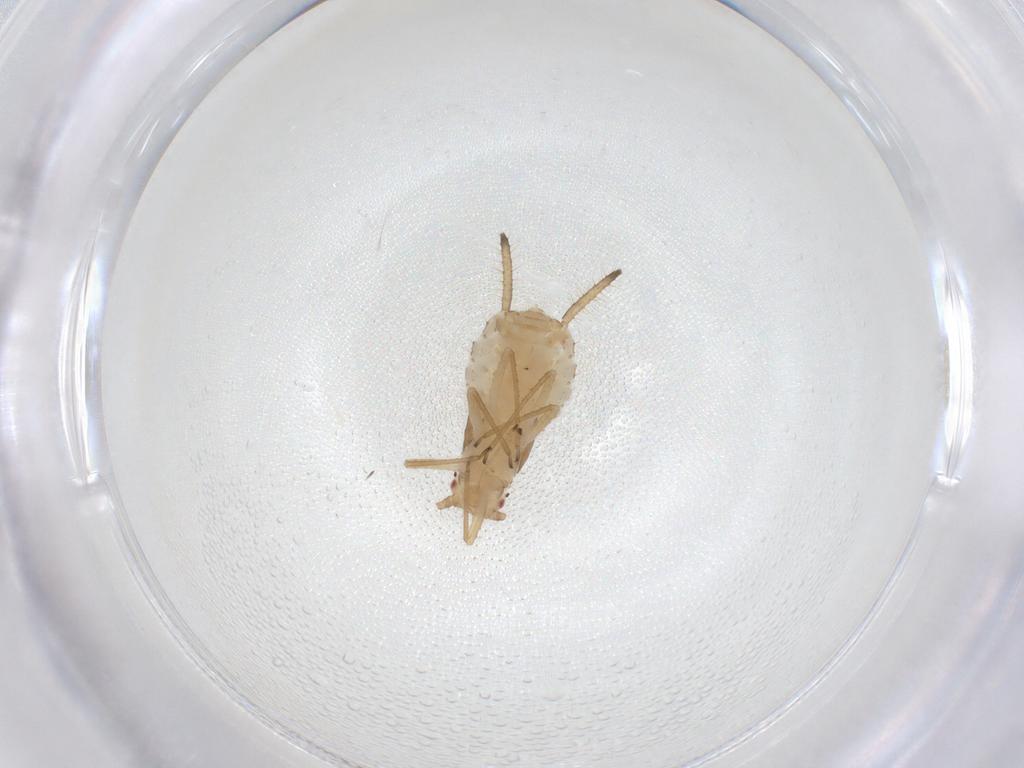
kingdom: Animalia
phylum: Arthropoda
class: Insecta
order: Hemiptera
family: Aphididae
